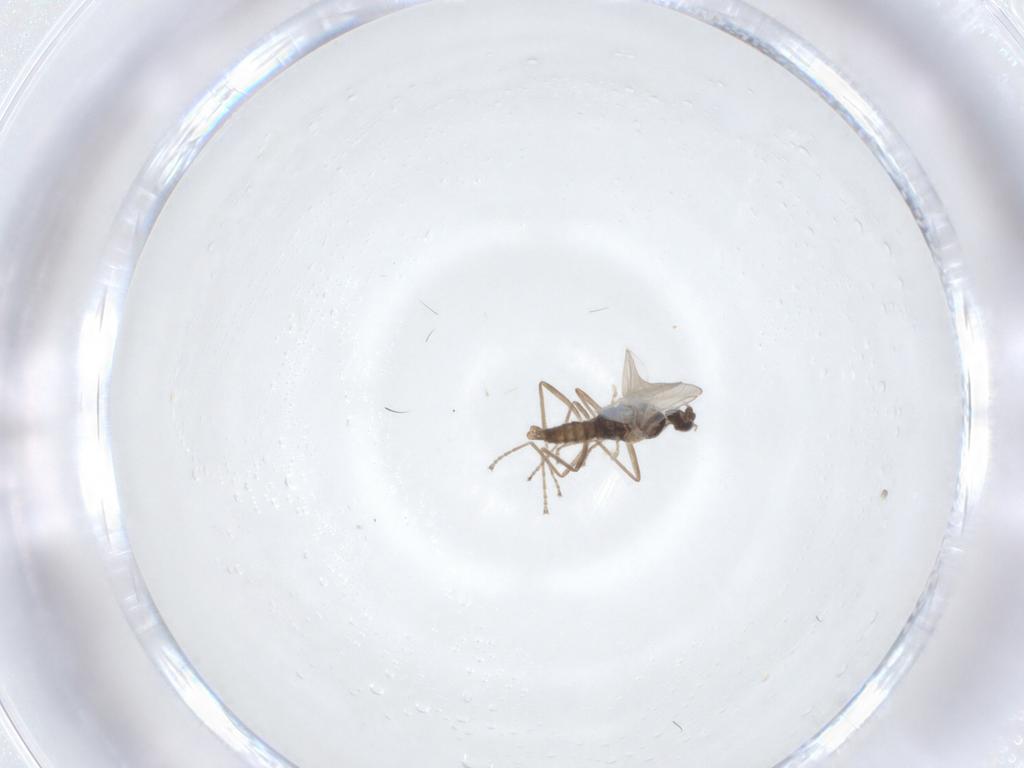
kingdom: Animalia
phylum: Arthropoda
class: Insecta
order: Diptera
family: Cecidomyiidae
